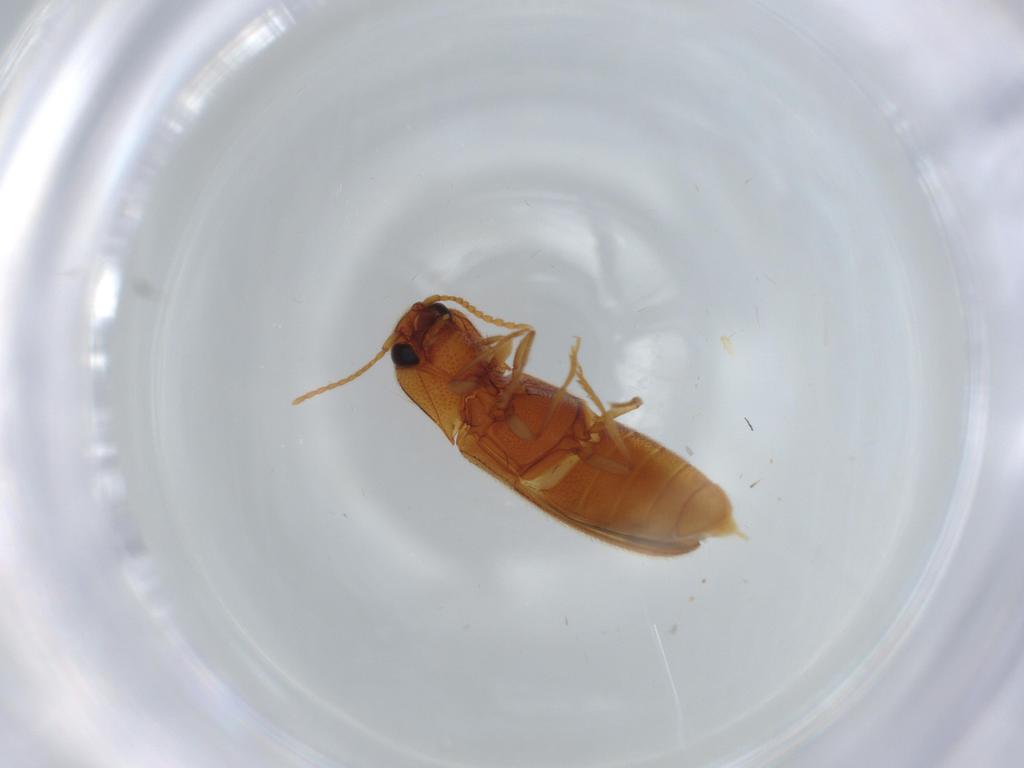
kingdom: Animalia
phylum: Arthropoda
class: Insecta
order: Coleoptera
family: Elateridae
